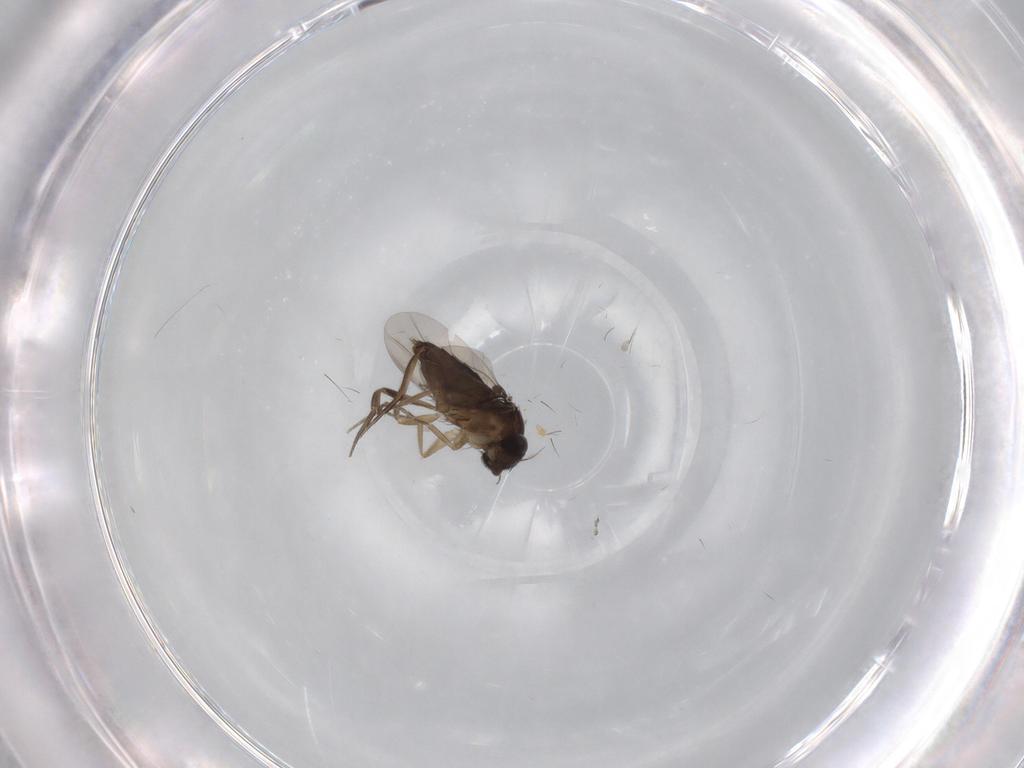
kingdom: Animalia
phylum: Arthropoda
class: Insecta
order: Diptera
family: Phoridae
